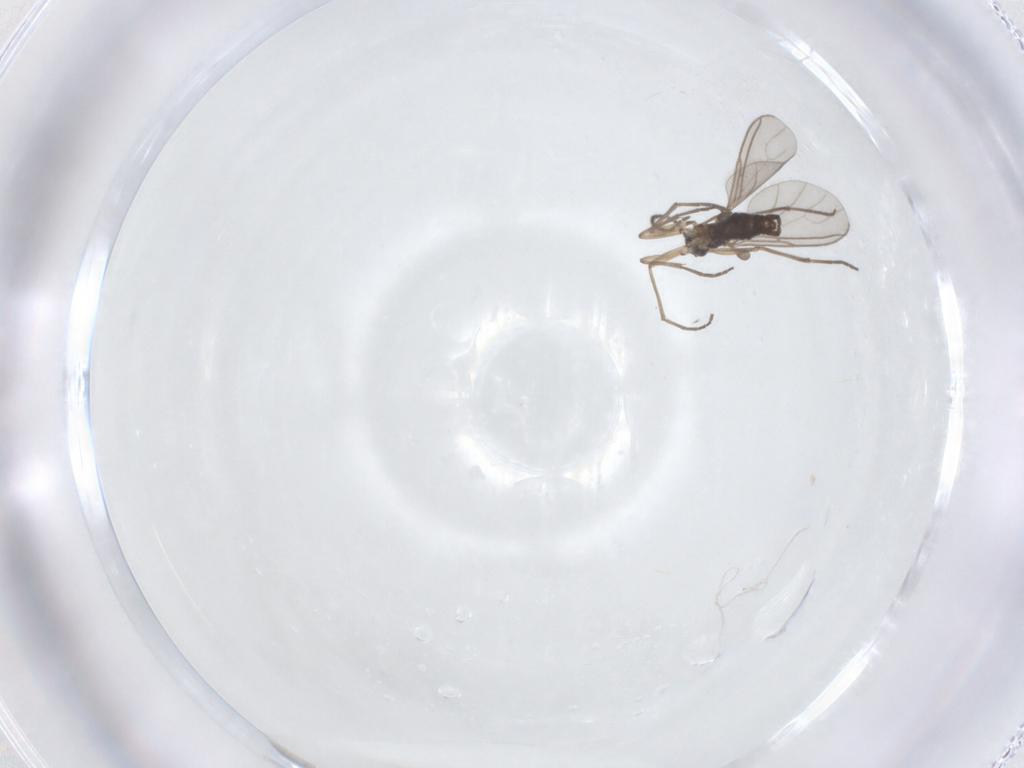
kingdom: Animalia
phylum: Arthropoda
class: Insecta
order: Diptera
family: Sciaridae
